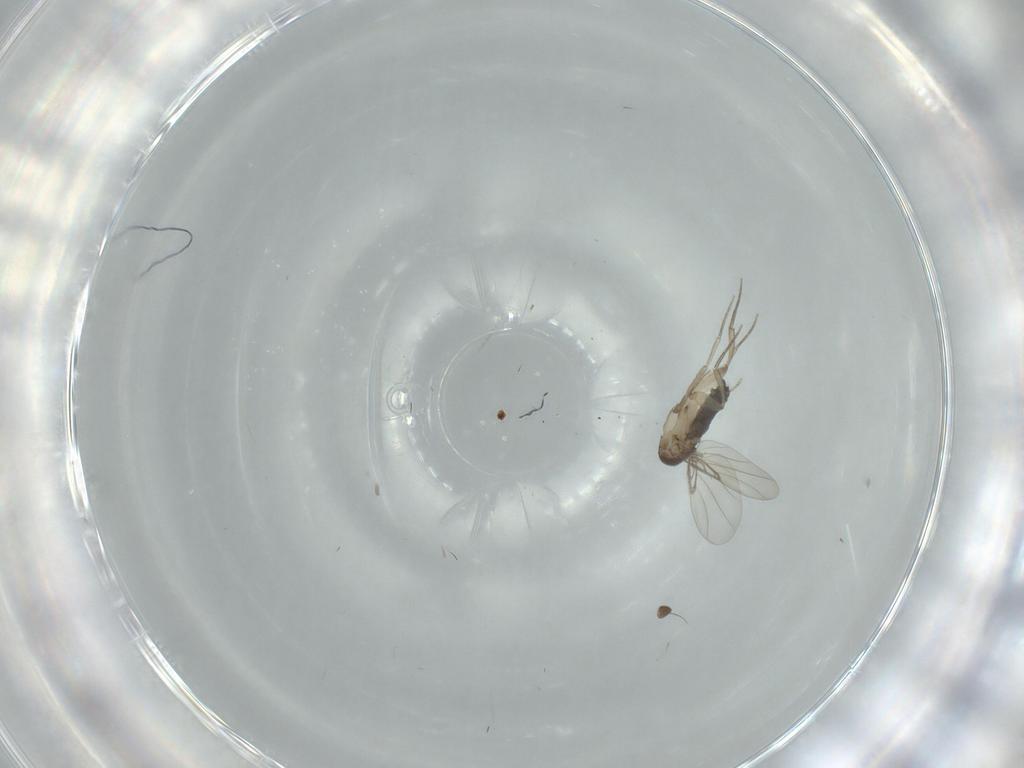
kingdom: Animalia
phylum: Arthropoda
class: Insecta
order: Diptera
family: Phoridae
